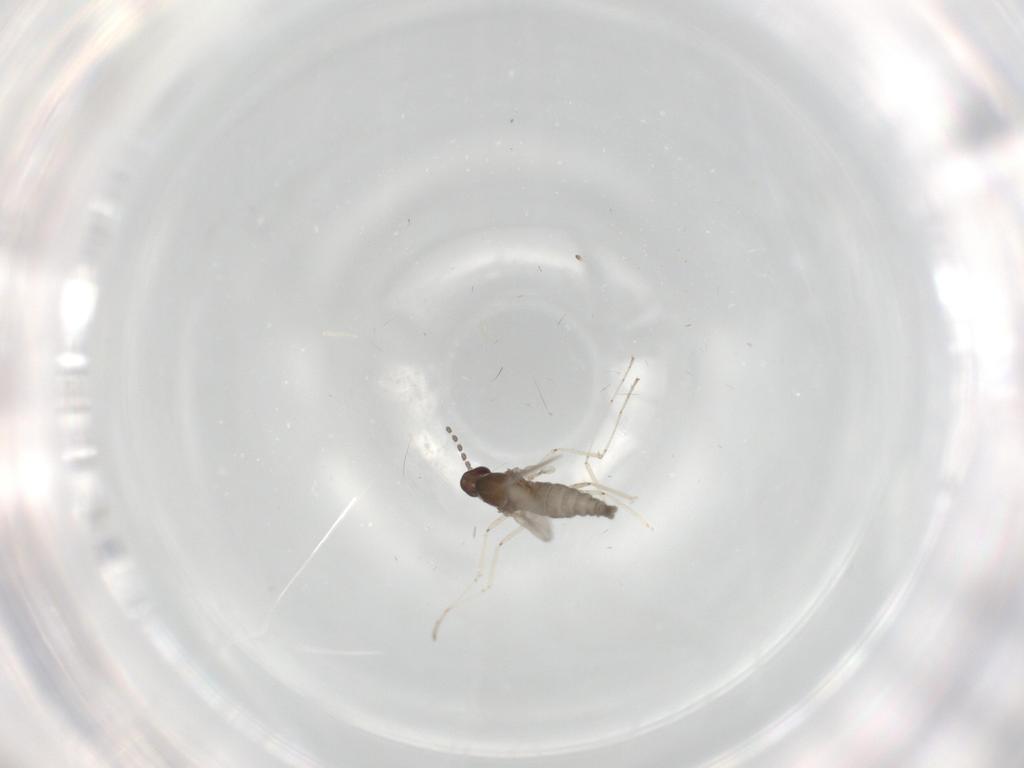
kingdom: Animalia
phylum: Arthropoda
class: Insecta
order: Diptera
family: Cecidomyiidae
